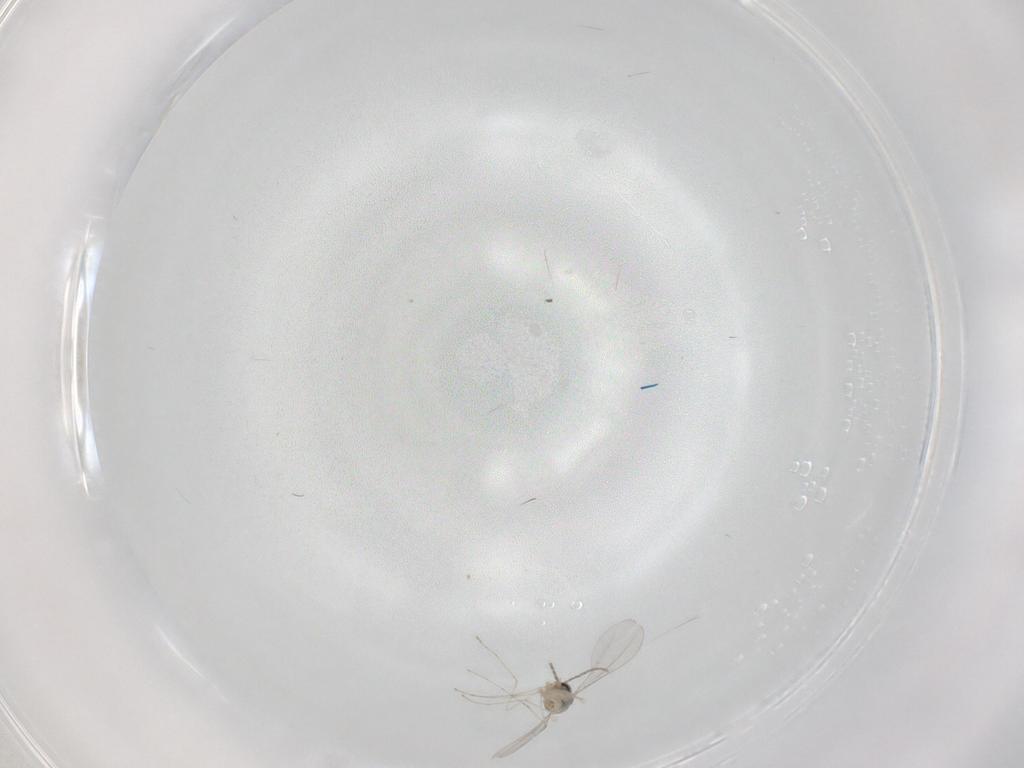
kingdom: Animalia
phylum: Arthropoda
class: Insecta
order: Diptera
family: Cecidomyiidae
